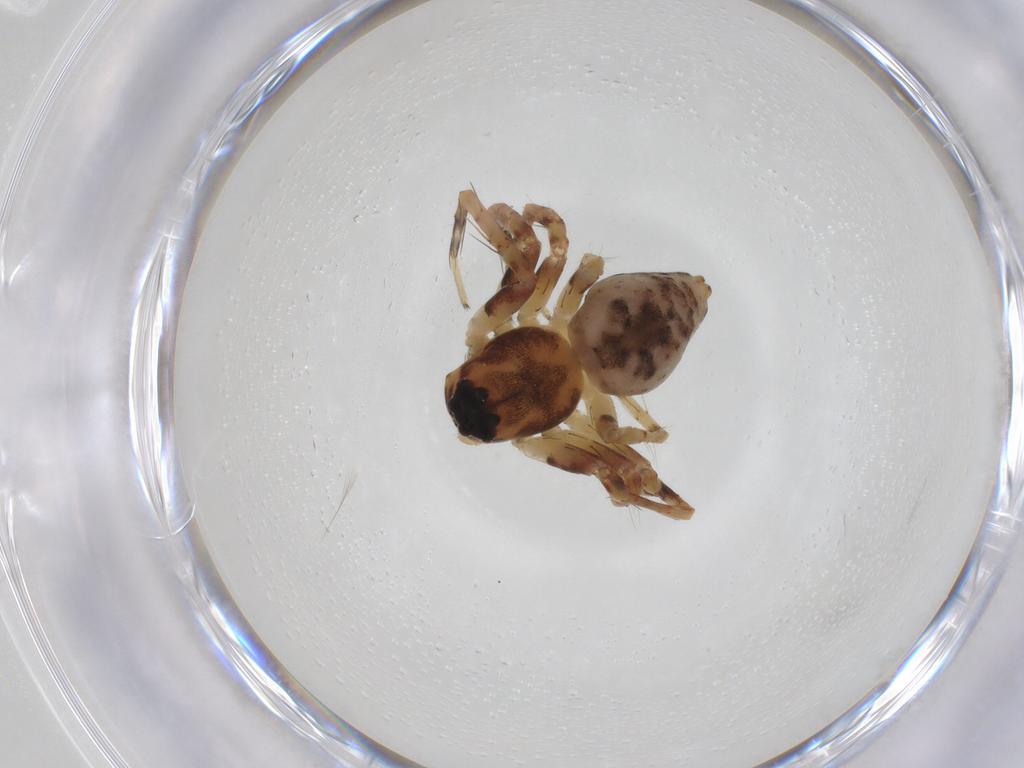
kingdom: Animalia
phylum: Arthropoda
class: Arachnida
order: Araneae
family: Oxyopidae
